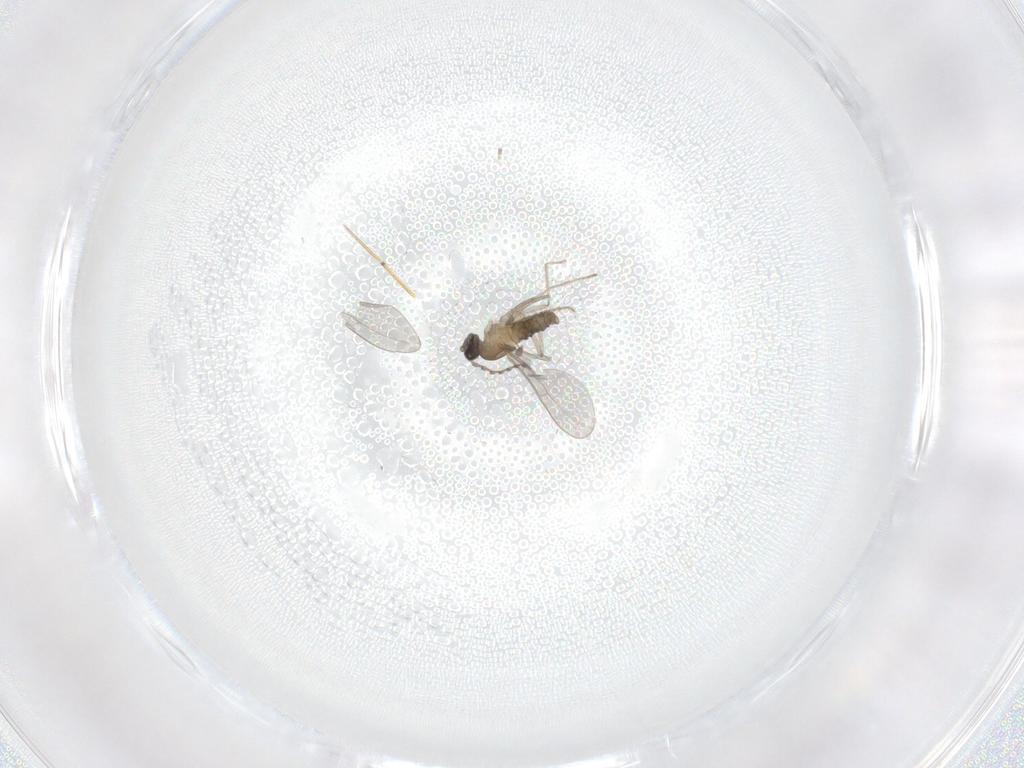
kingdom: Animalia
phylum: Arthropoda
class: Insecta
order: Diptera
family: Cecidomyiidae
